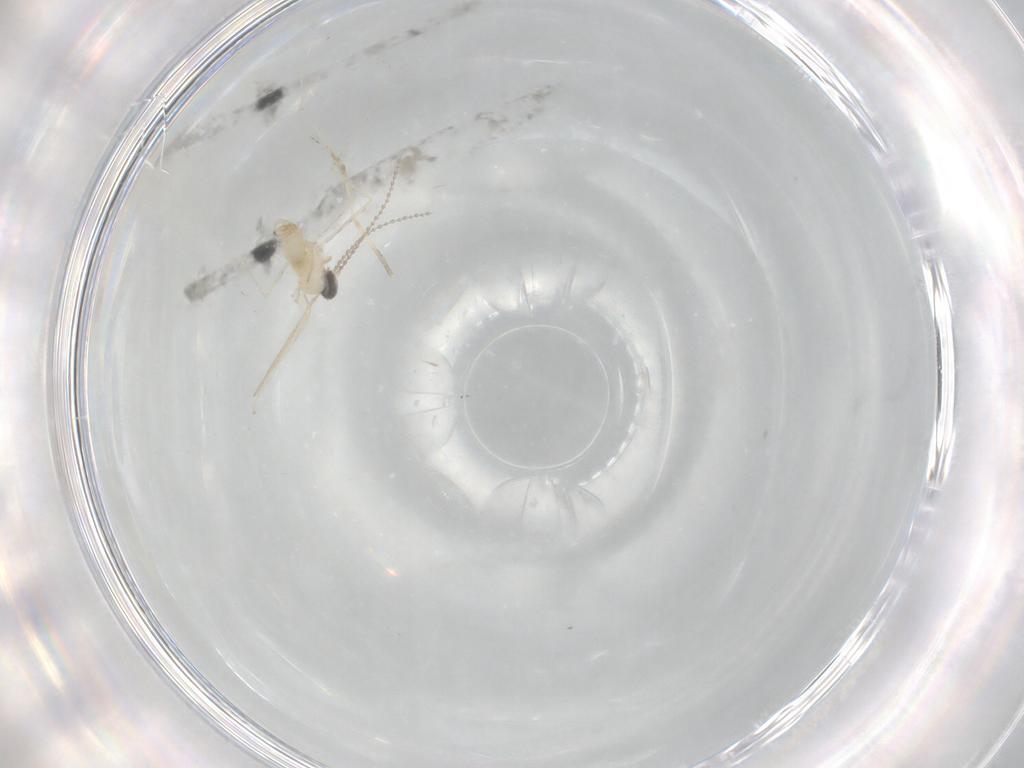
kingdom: Animalia
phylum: Arthropoda
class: Insecta
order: Diptera
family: Cecidomyiidae
